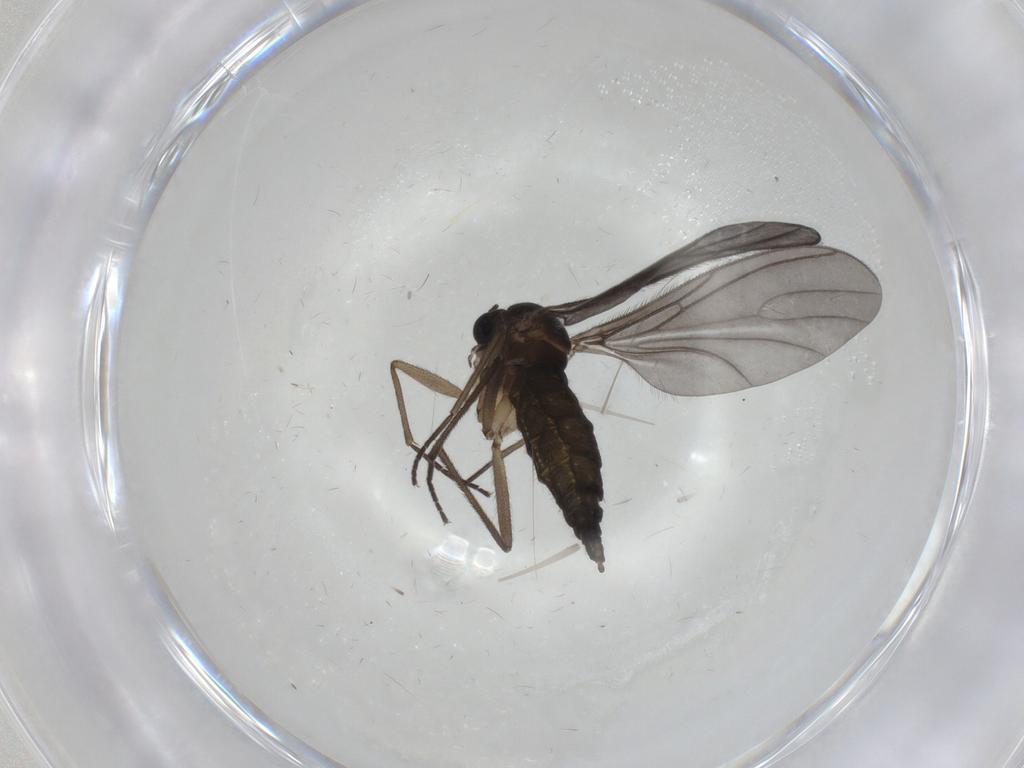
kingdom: Animalia
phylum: Arthropoda
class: Insecta
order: Diptera
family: Sciaridae
